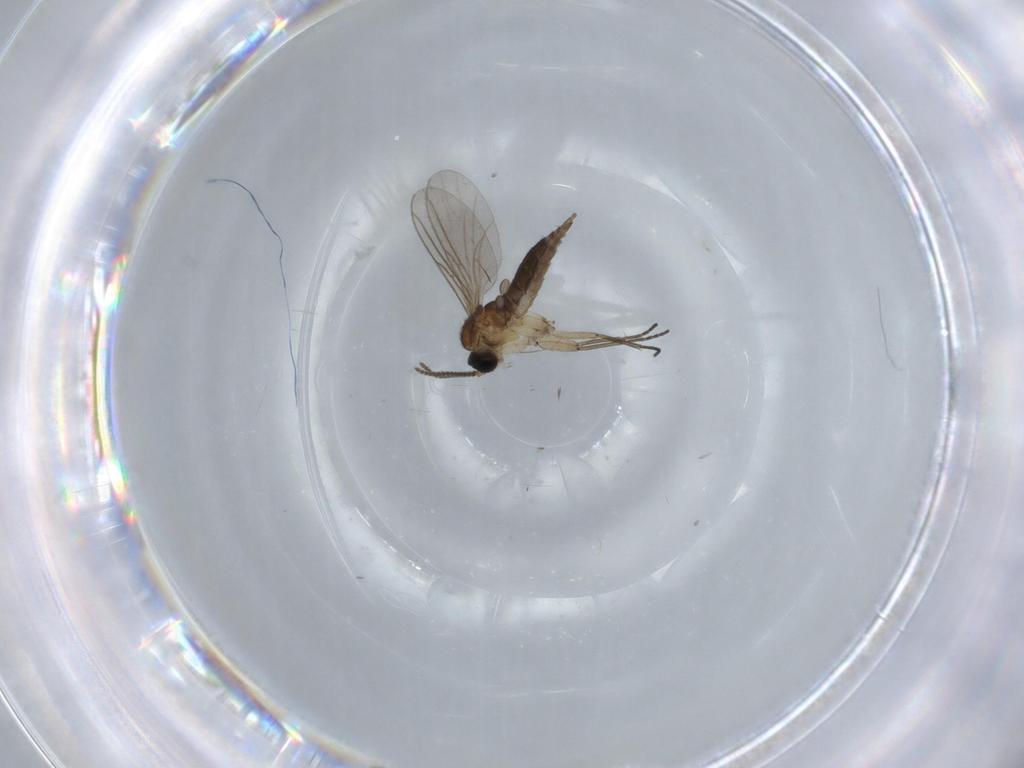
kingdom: Animalia
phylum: Arthropoda
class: Insecta
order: Diptera
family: Sciaridae
